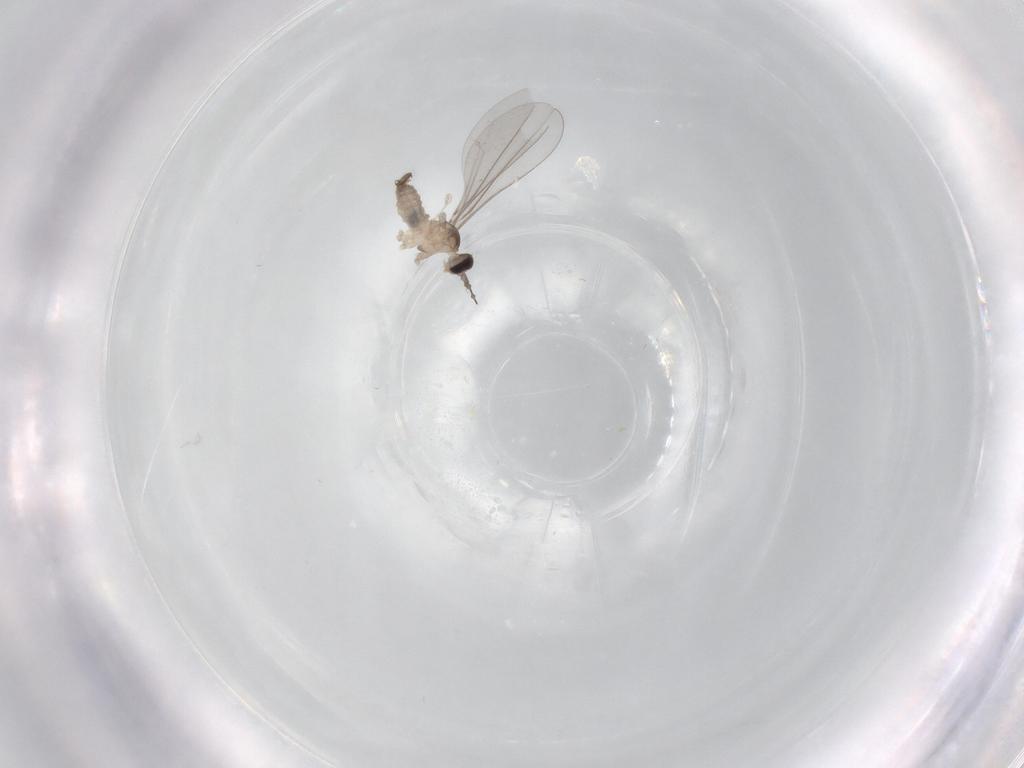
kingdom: Animalia
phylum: Arthropoda
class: Insecta
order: Diptera
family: Cecidomyiidae
